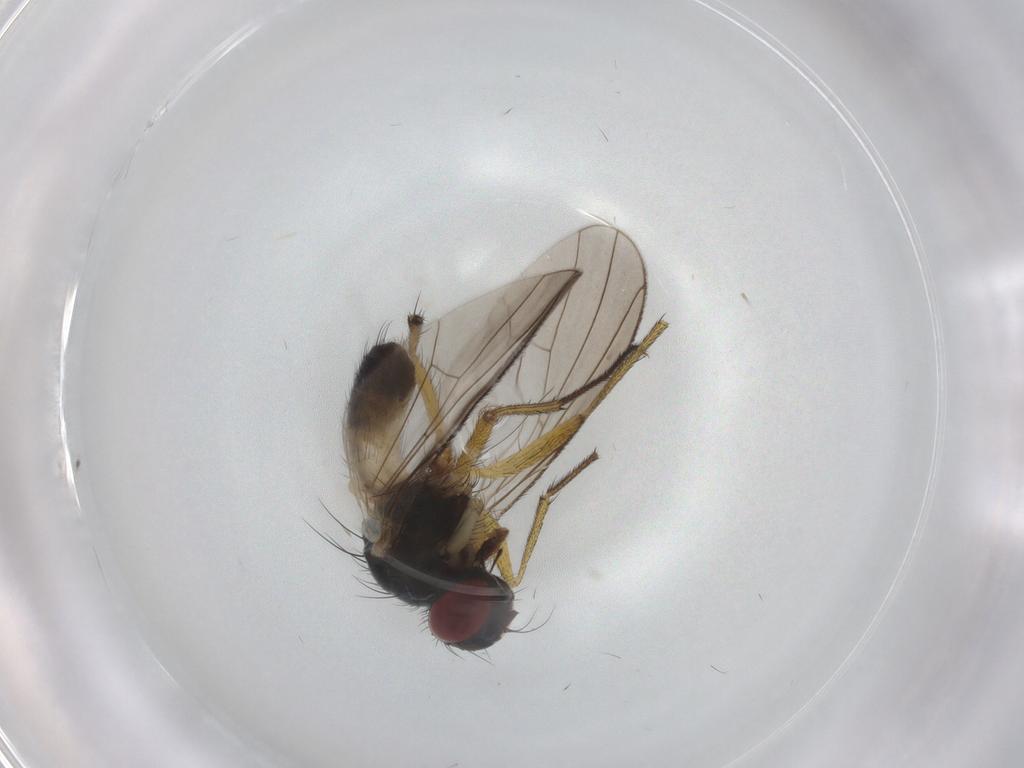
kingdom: Animalia
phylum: Arthropoda
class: Insecta
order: Diptera
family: Muscidae
